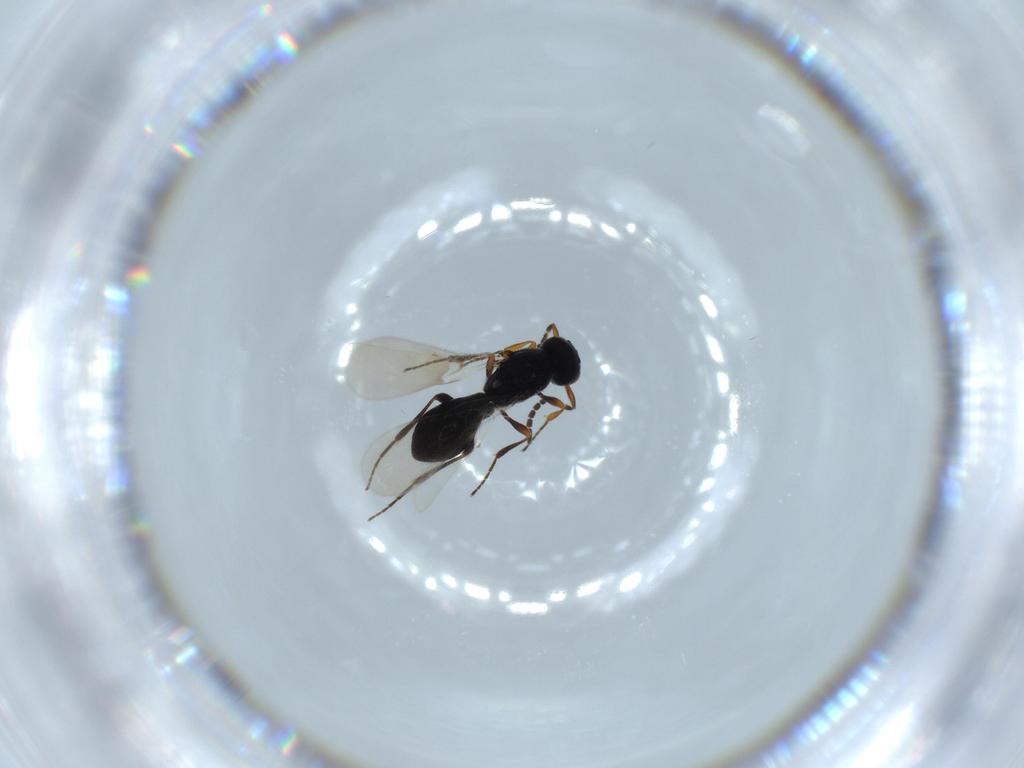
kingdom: Animalia
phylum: Arthropoda
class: Insecta
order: Hymenoptera
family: Platygastridae
